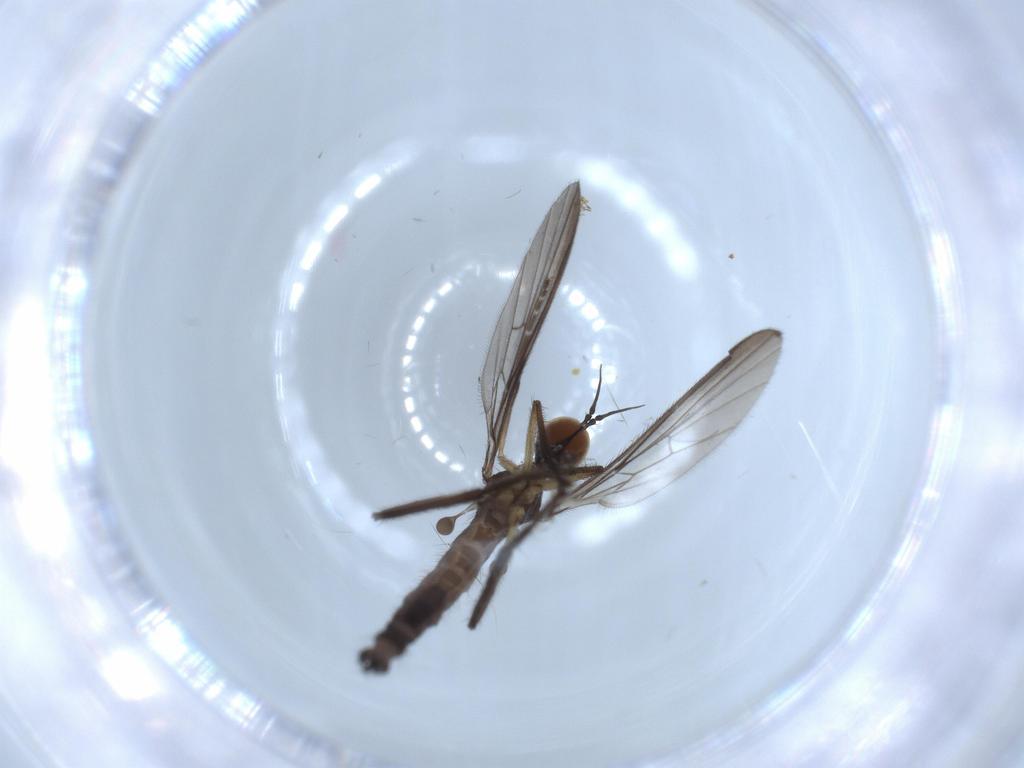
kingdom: Animalia
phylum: Arthropoda
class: Insecta
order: Diptera
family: Empididae
